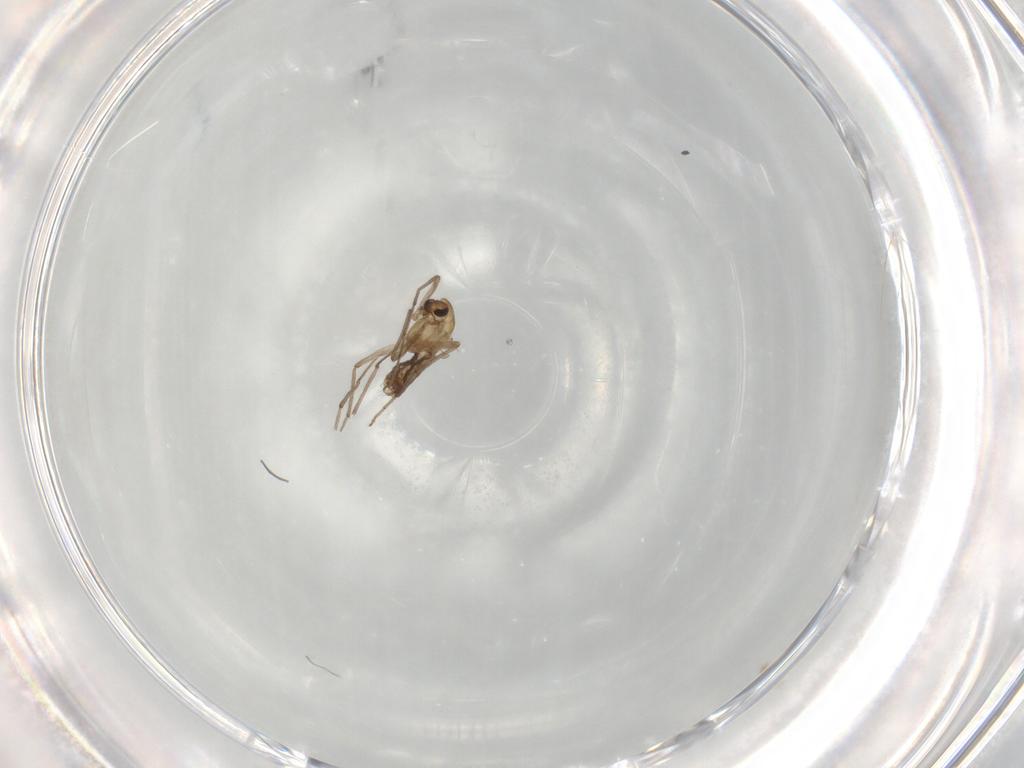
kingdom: Animalia
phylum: Arthropoda
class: Insecta
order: Diptera
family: Chironomidae
